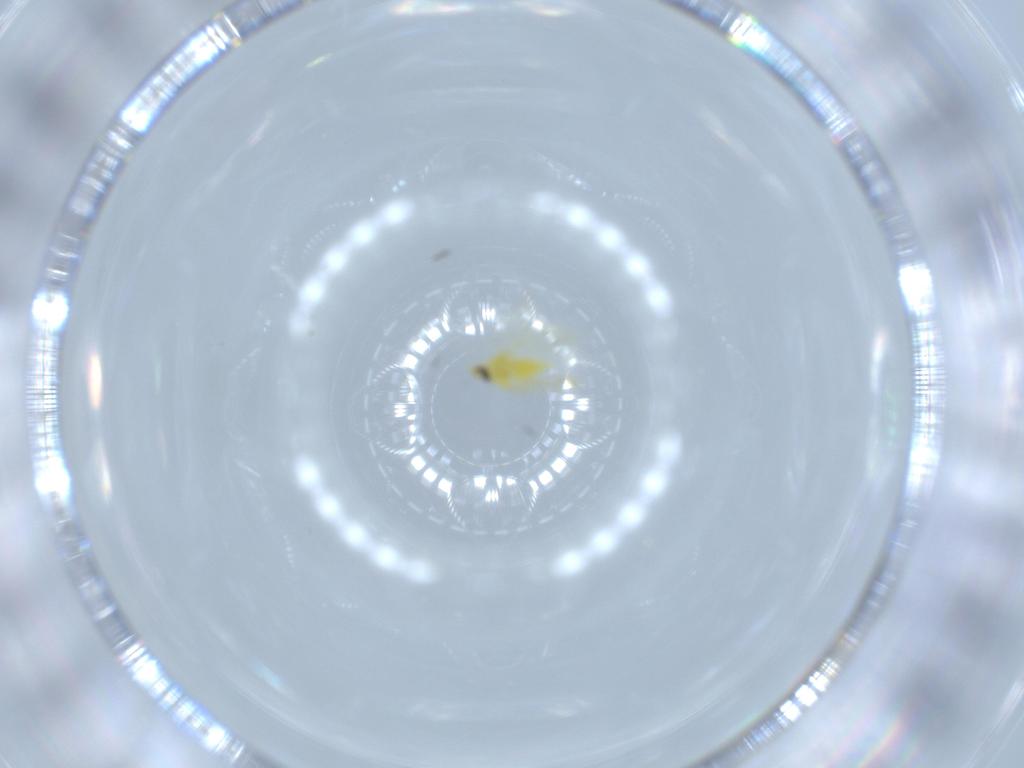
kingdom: Animalia
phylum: Arthropoda
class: Insecta
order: Hemiptera
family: Aleyrodidae
